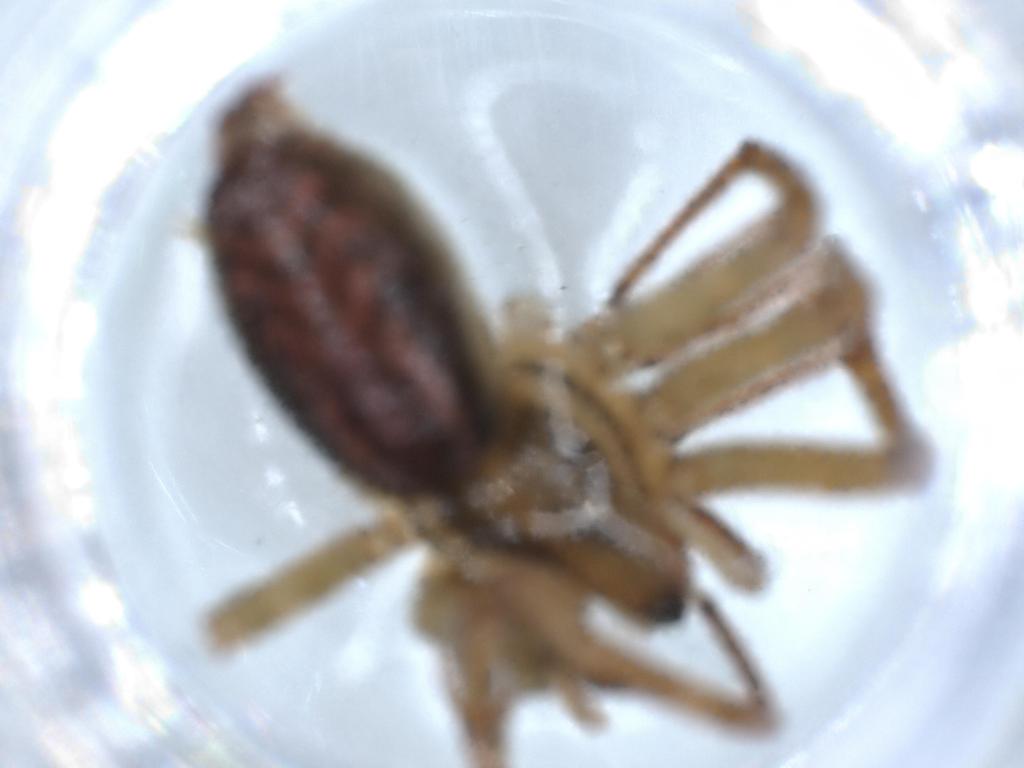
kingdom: Animalia
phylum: Arthropoda
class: Arachnida
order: Araneae
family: Agelenidae
